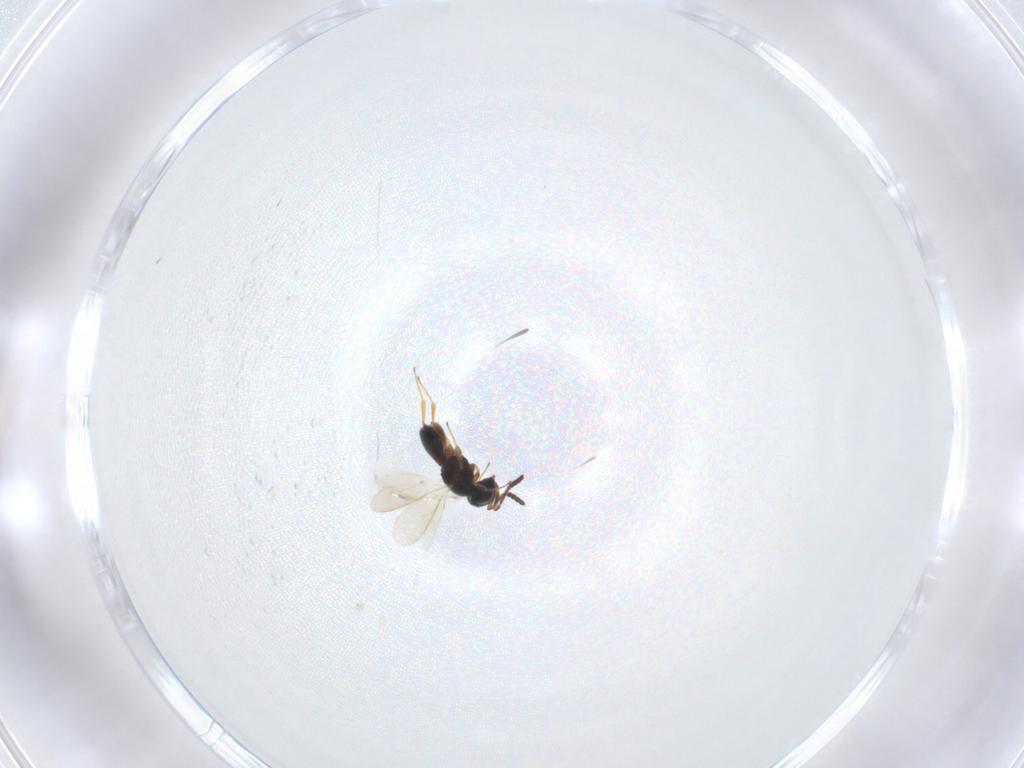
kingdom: Animalia
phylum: Arthropoda
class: Insecta
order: Hymenoptera
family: Scelionidae
